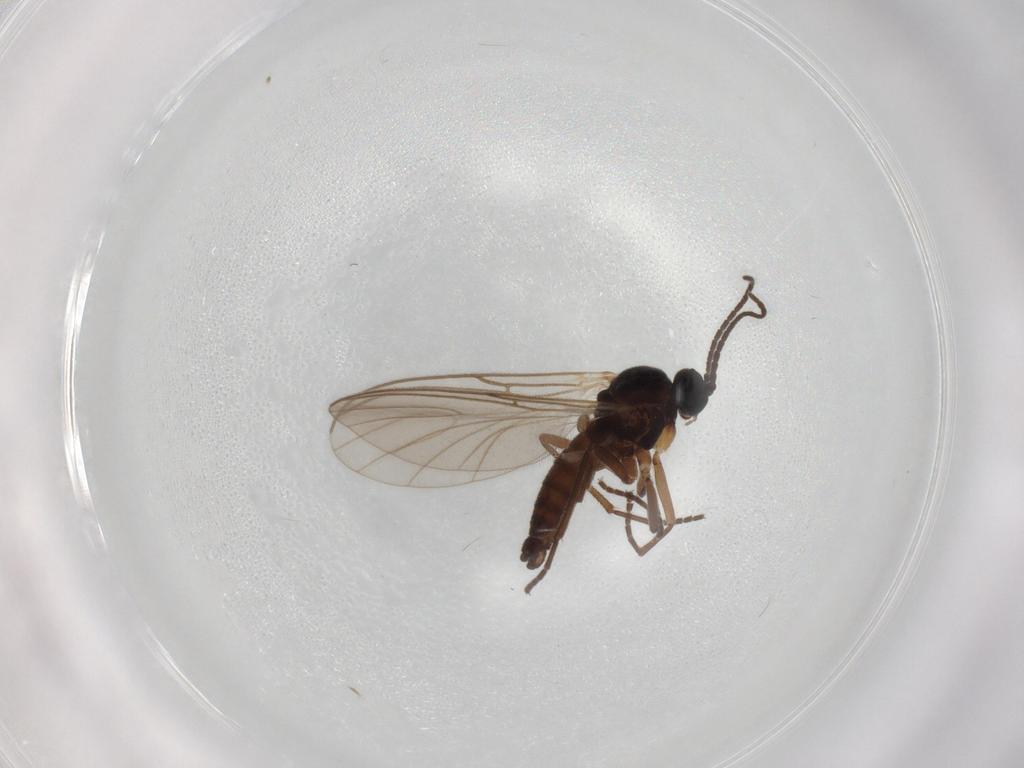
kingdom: Animalia
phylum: Arthropoda
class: Insecta
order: Diptera
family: Sciaridae
